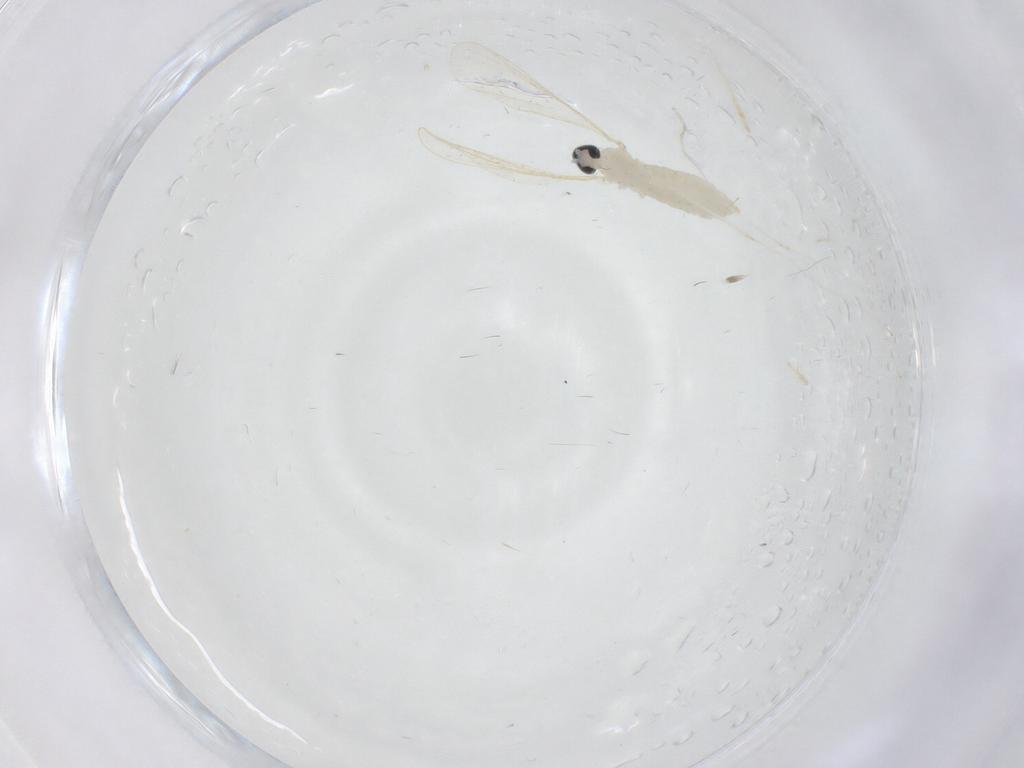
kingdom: Animalia
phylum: Arthropoda
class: Insecta
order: Diptera
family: Cecidomyiidae
